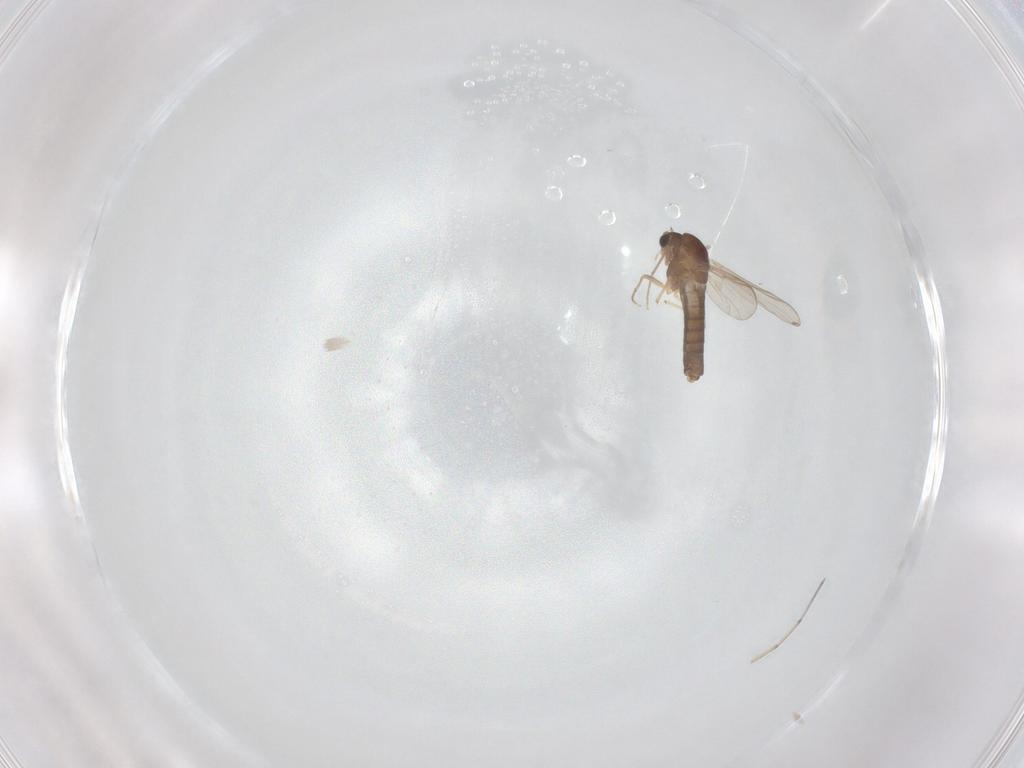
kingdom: Animalia
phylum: Arthropoda
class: Insecta
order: Diptera
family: Chironomidae
